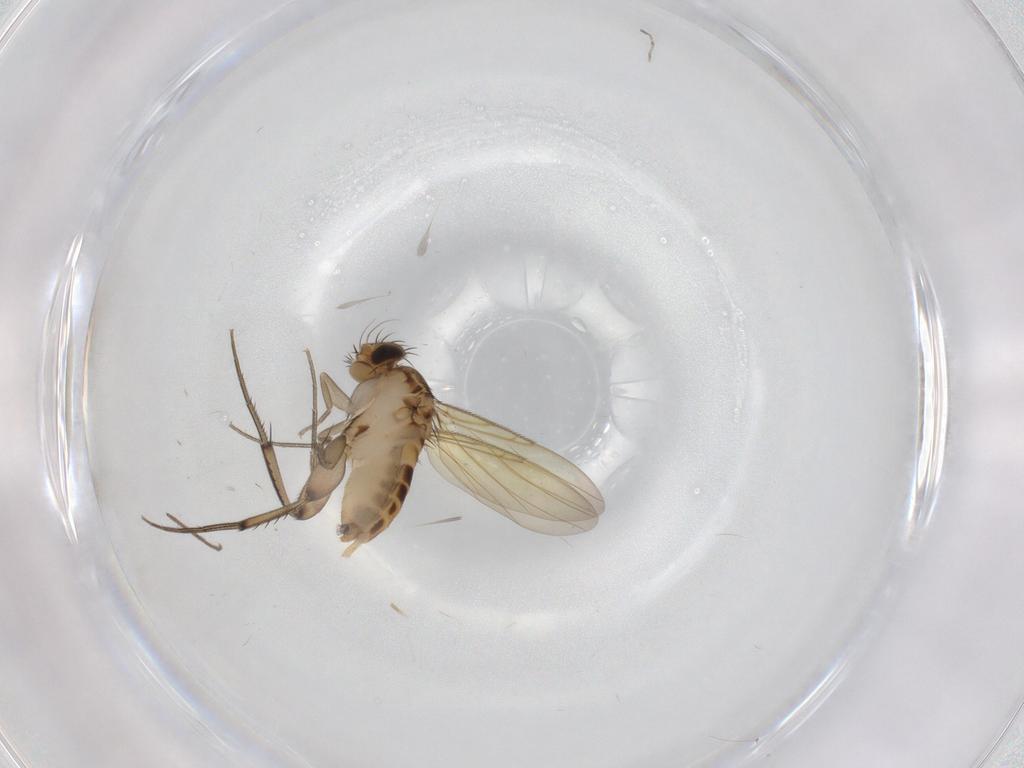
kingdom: Animalia
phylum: Arthropoda
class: Insecta
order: Diptera
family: Chironomidae
